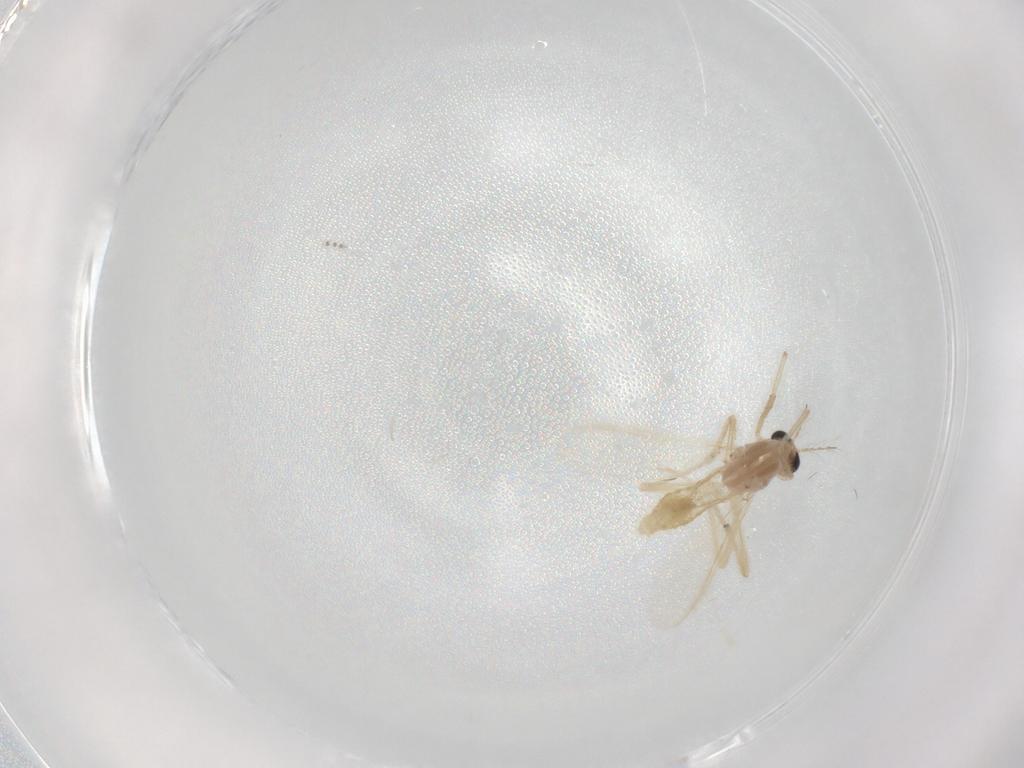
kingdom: Animalia
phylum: Arthropoda
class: Insecta
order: Diptera
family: Chironomidae
